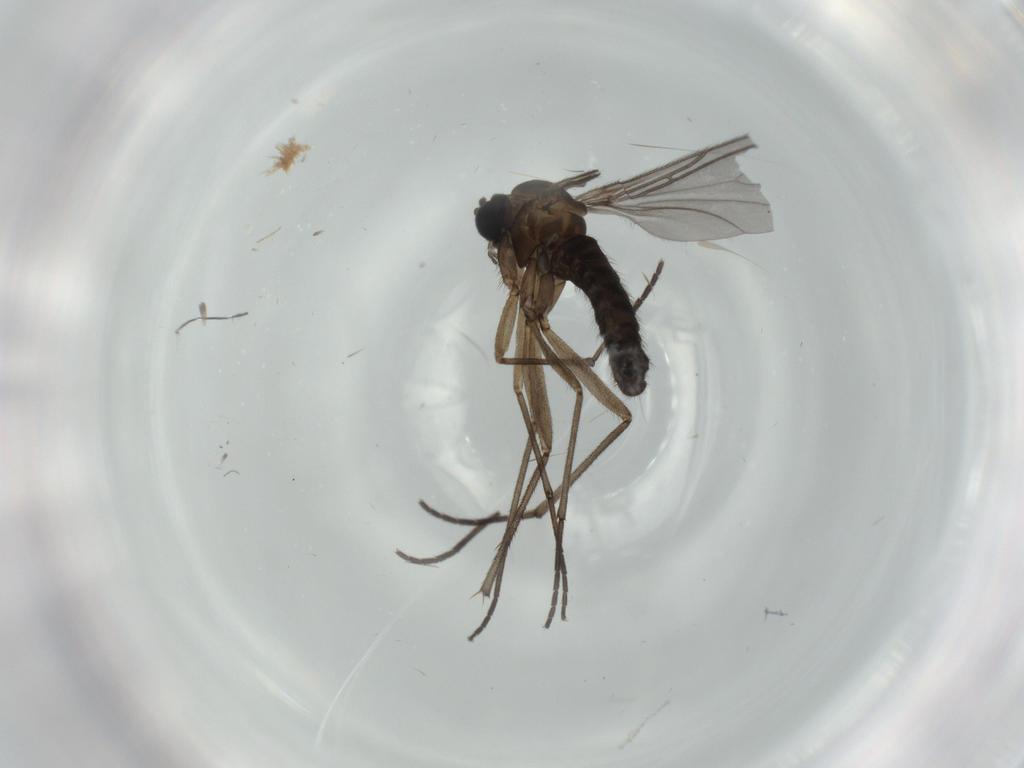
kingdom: Animalia
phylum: Arthropoda
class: Insecta
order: Diptera
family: Sciaridae
